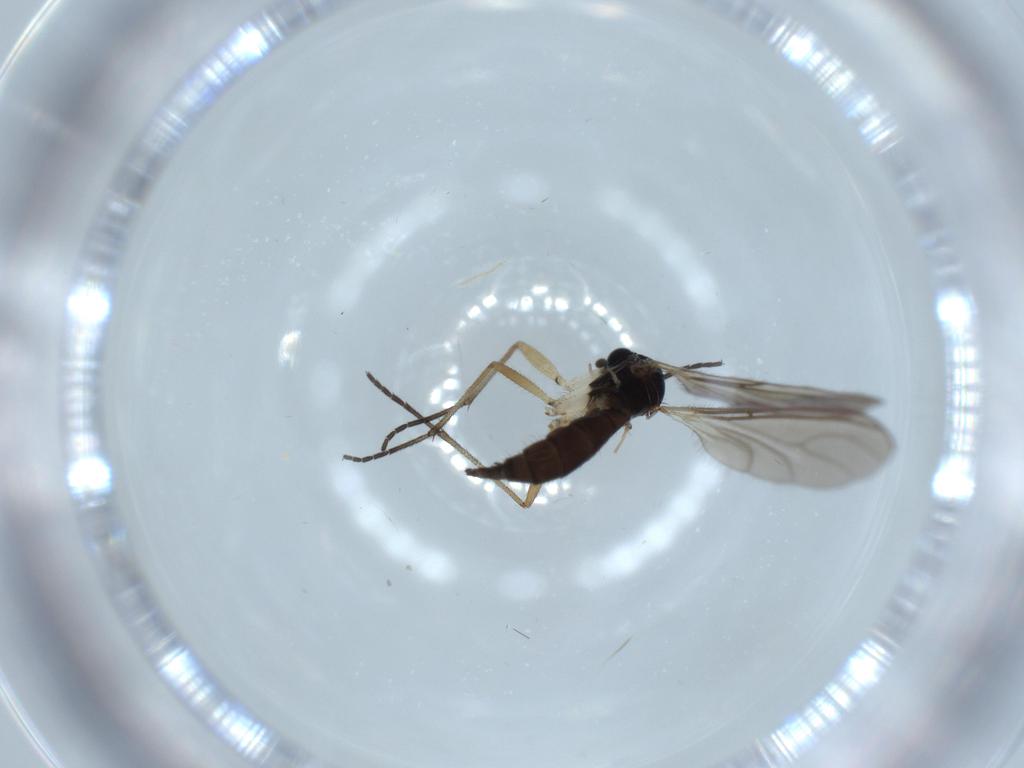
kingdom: Animalia
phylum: Arthropoda
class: Insecta
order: Diptera
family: Sciaridae
